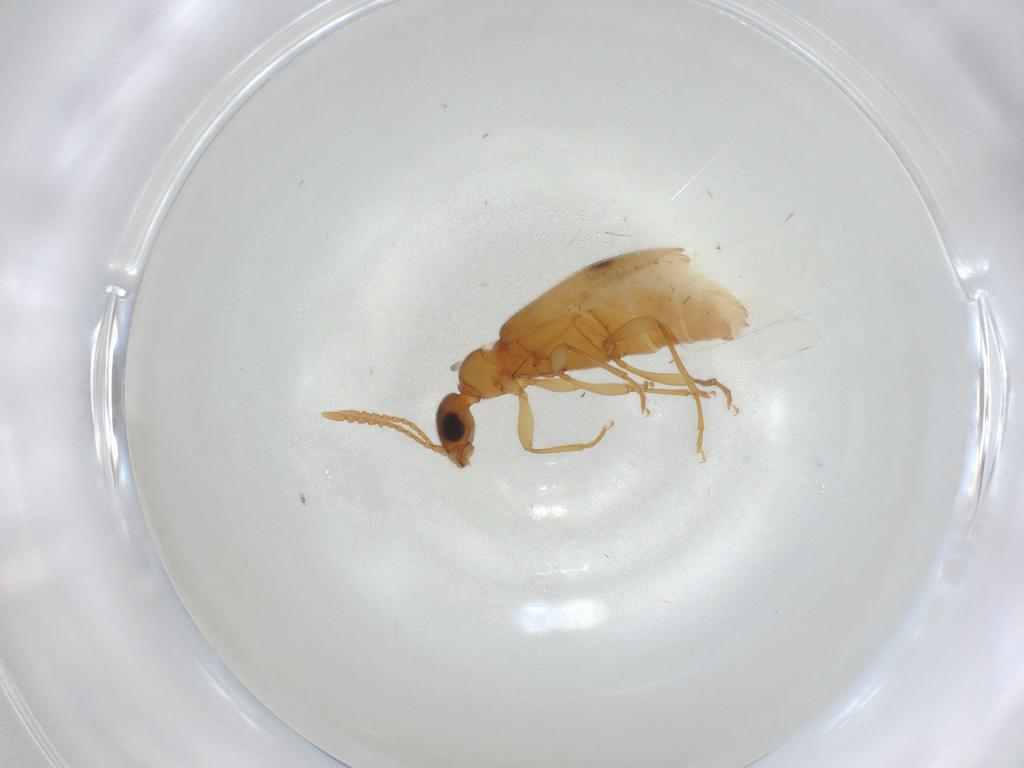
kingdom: Animalia
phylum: Arthropoda
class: Insecta
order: Coleoptera
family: Anthicidae
